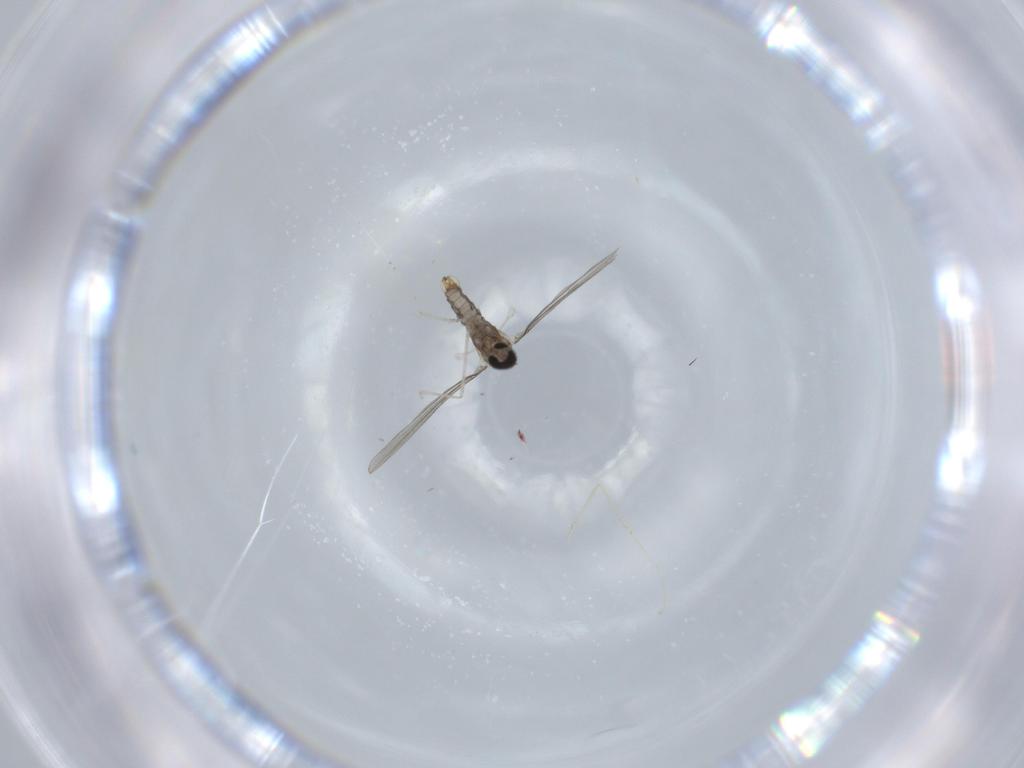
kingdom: Animalia
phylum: Arthropoda
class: Insecta
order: Diptera
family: Cecidomyiidae
